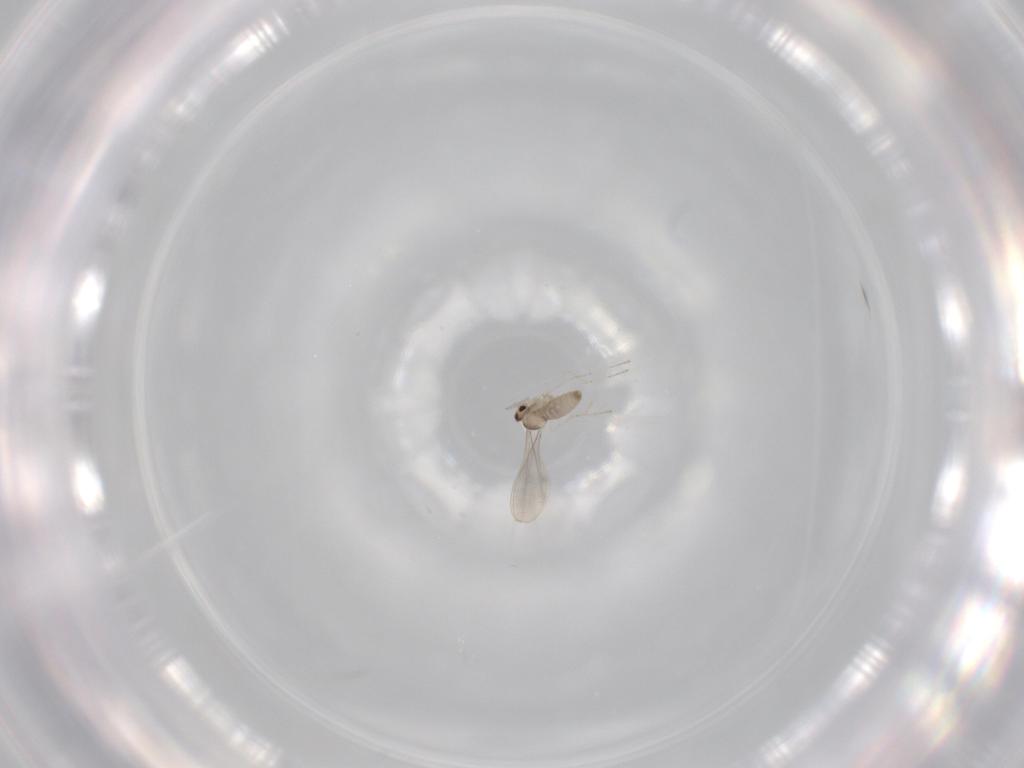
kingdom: Animalia
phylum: Arthropoda
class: Insecta
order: Diptera
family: Cecidomyiidae
